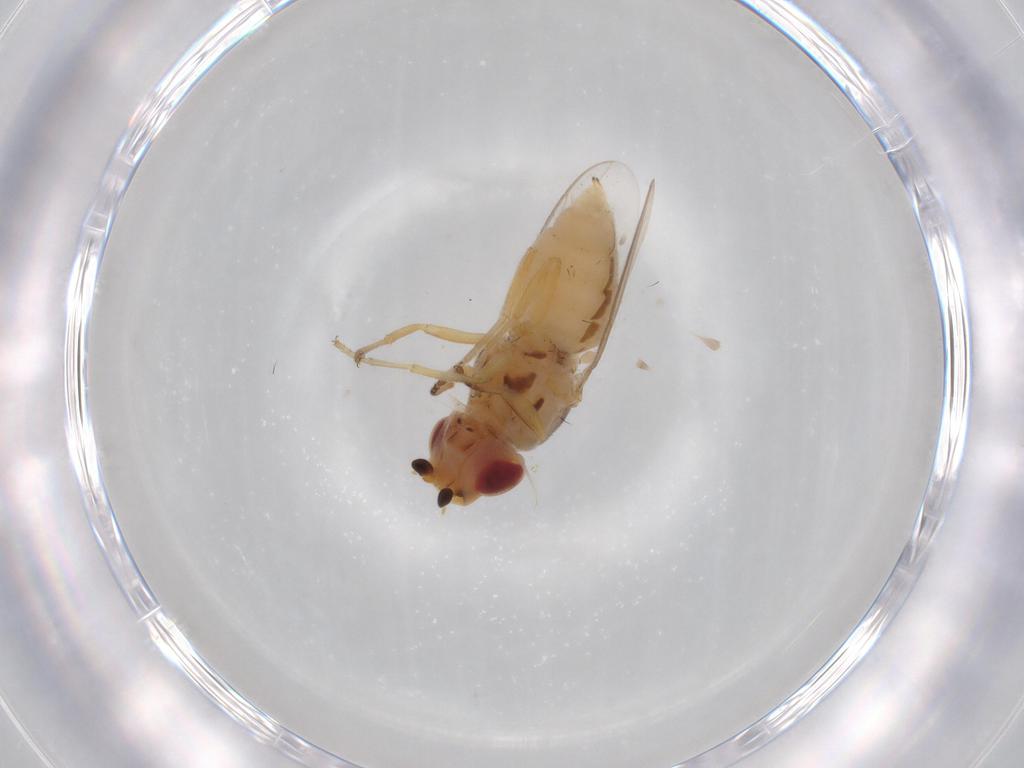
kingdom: Animalia
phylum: Arthropoda
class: Insecta
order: Diptera
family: Chloropidae
